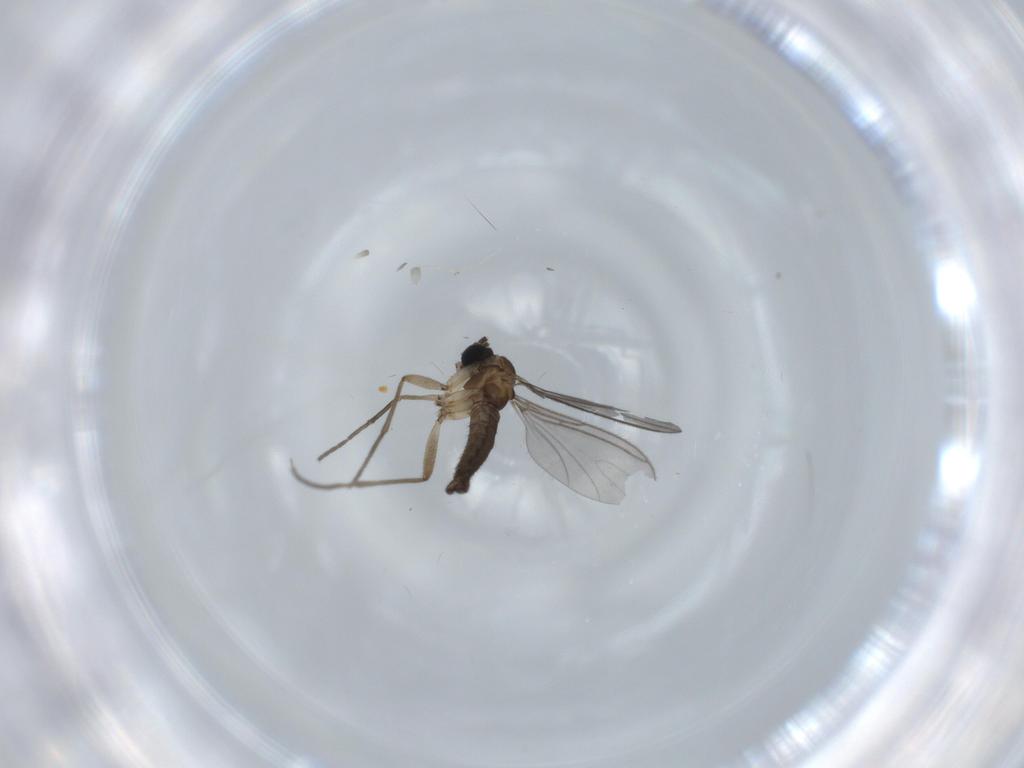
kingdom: Animalia
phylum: Arthropoda
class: Insecta
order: Diptera
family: Sciaridae
